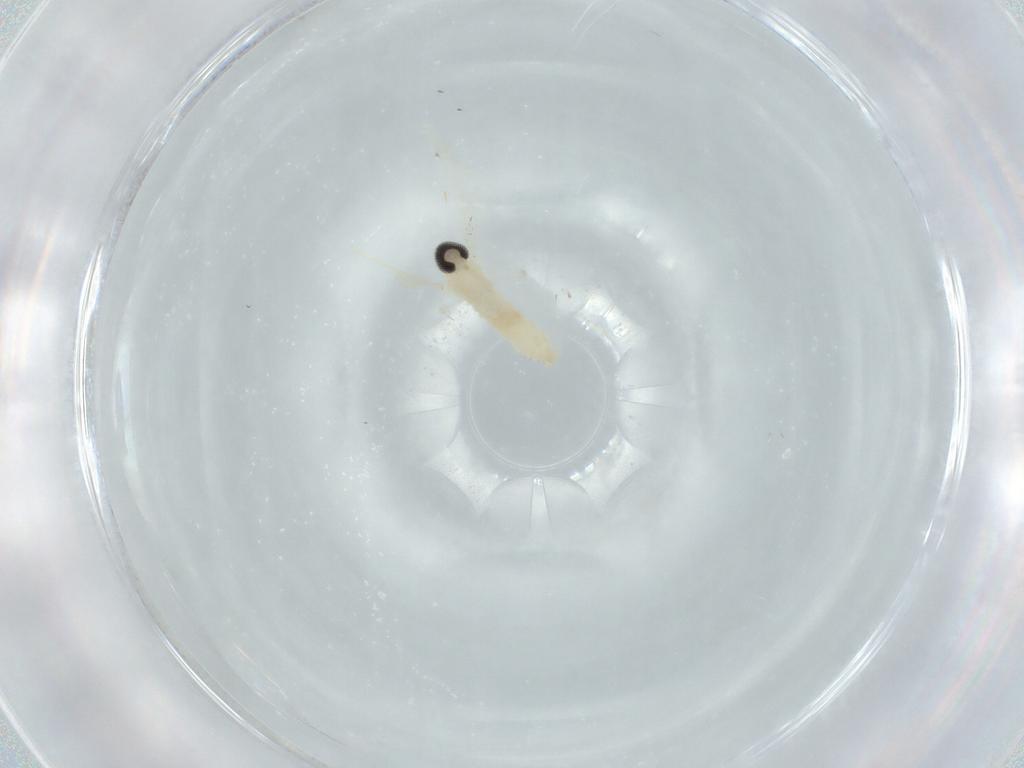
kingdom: Animalia
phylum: Arthropoda
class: Insecta
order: Diptera
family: Cecidomyiidae
